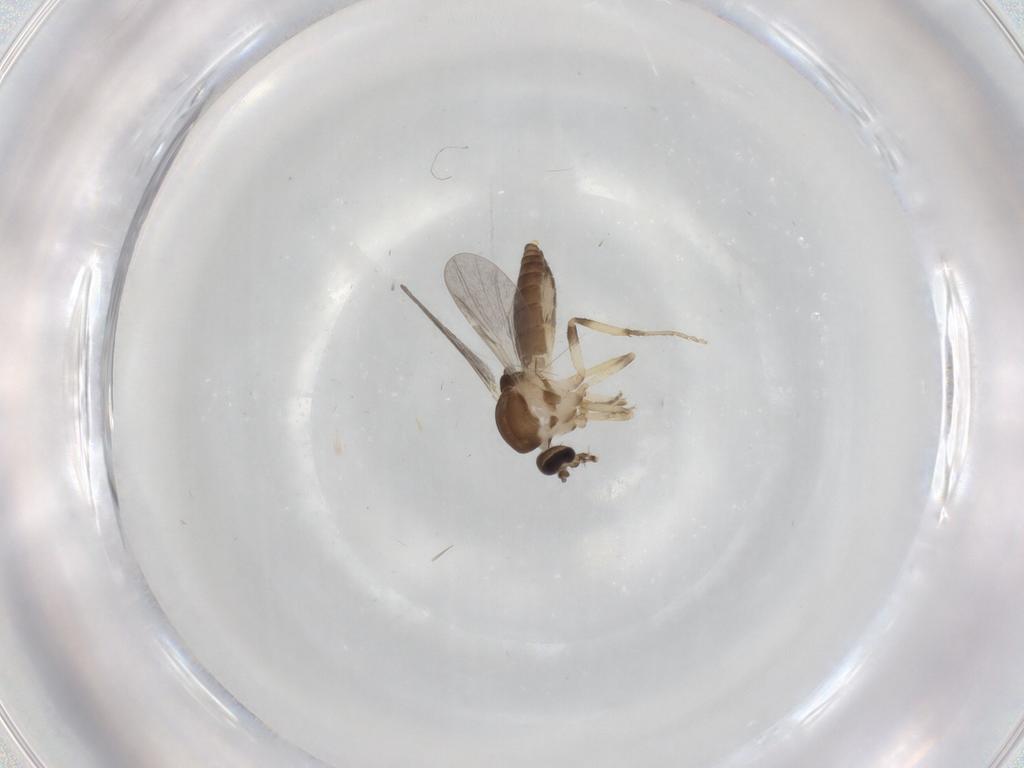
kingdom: Animalia
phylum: Arthropoda
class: Insecta
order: Diptera
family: Ceratopogonidae
